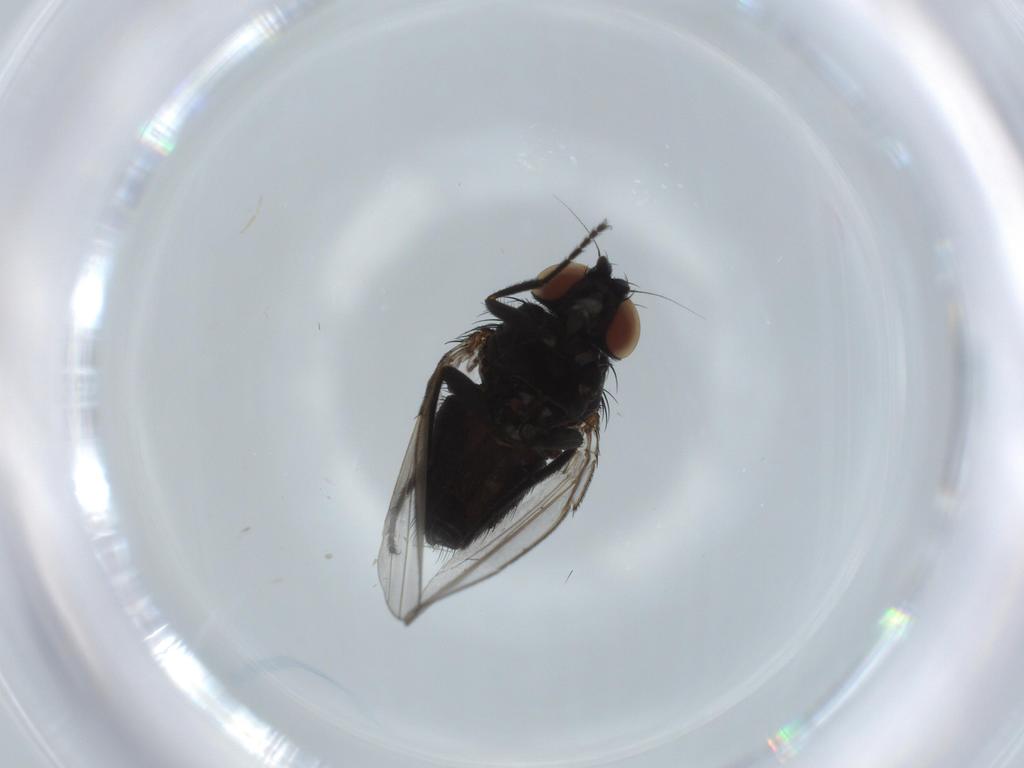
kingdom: Animalia
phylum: Arthropoda
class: Insecta
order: Diptera
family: Milichiidae
